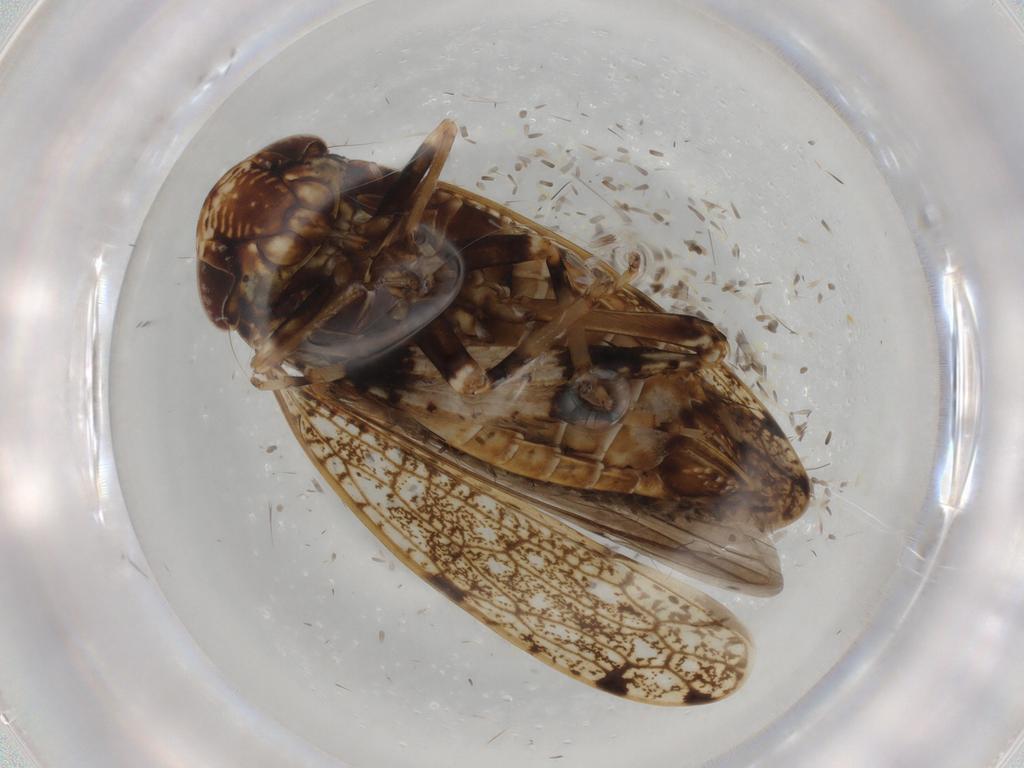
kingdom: Animalia
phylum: Arthropoda
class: Insecta
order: Hemiptera
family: Cicadellidae
